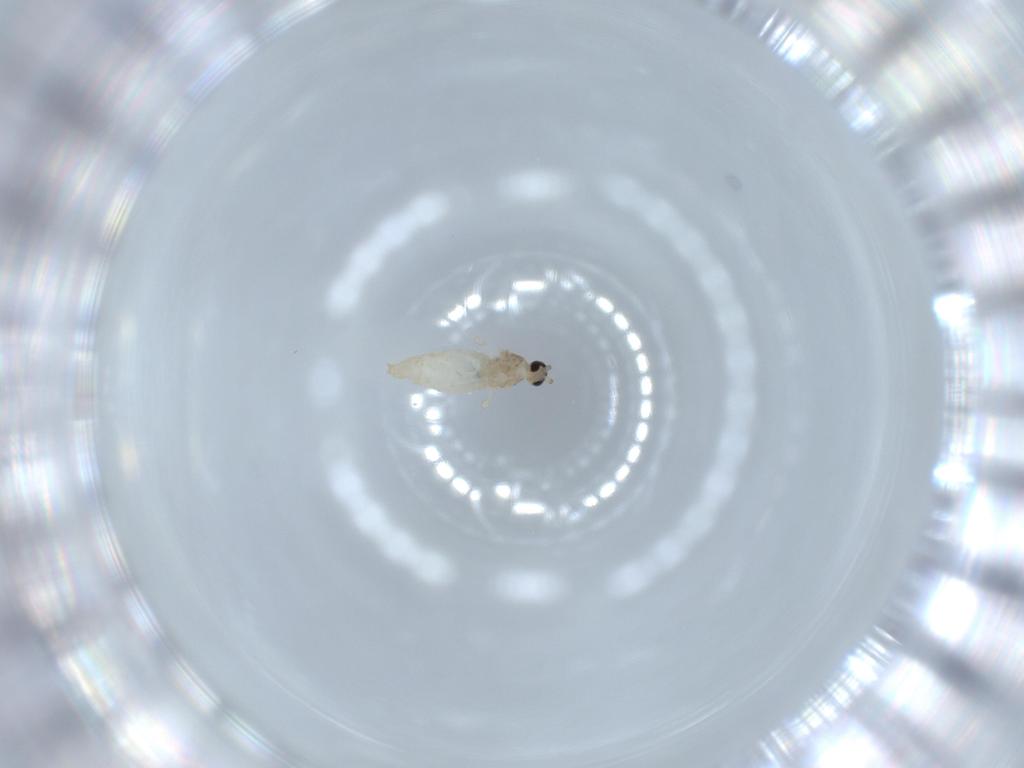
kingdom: Animalia
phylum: Arthropoda
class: Insecta
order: Diptera
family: Cecidomyiidae
